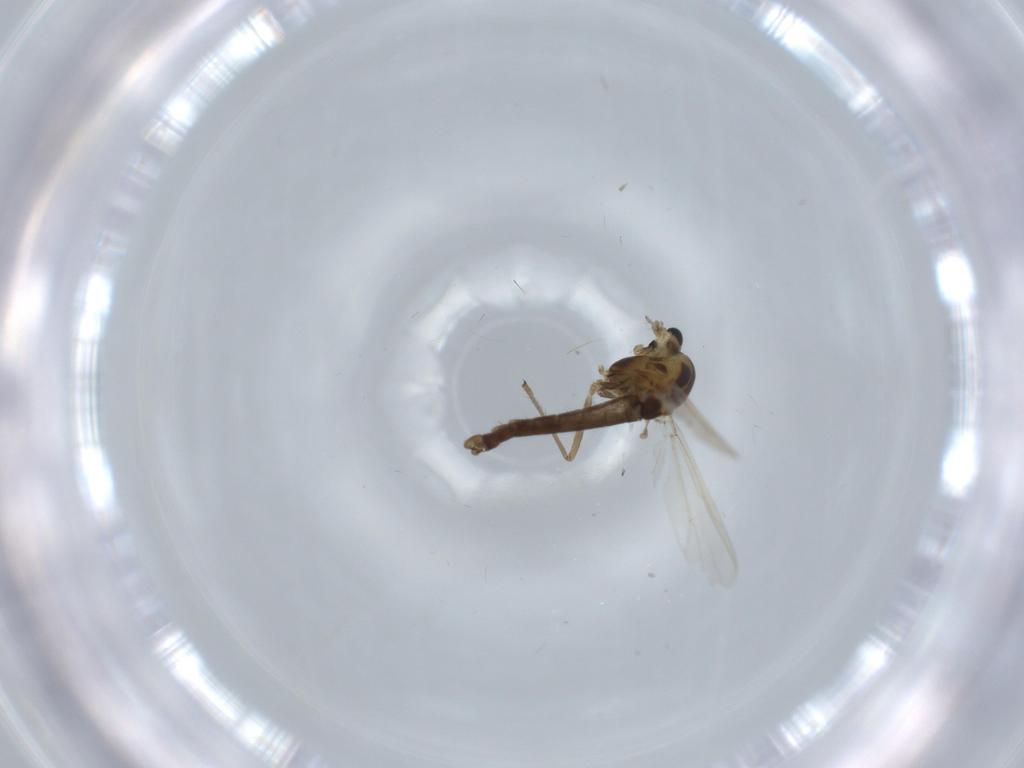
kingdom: Animalia
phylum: Arthropoda
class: Insecta
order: Diptera
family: Chironomidae
